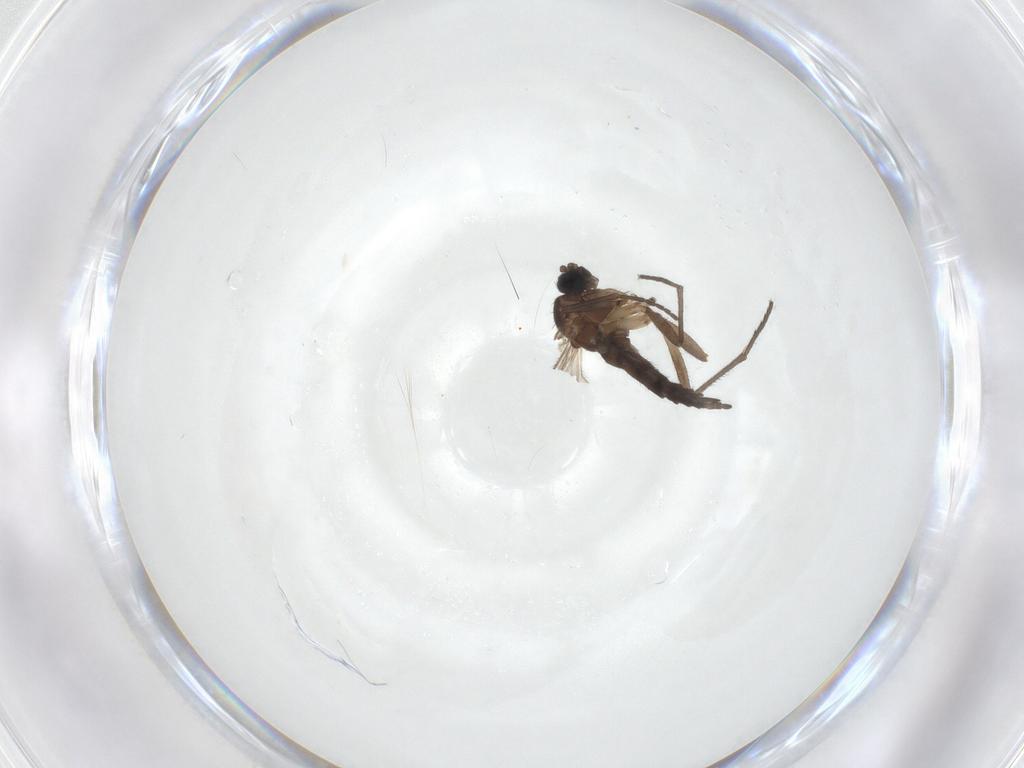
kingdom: Animalia
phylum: Arthropoda
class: Insecta
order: Diptera
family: Sciaridae
